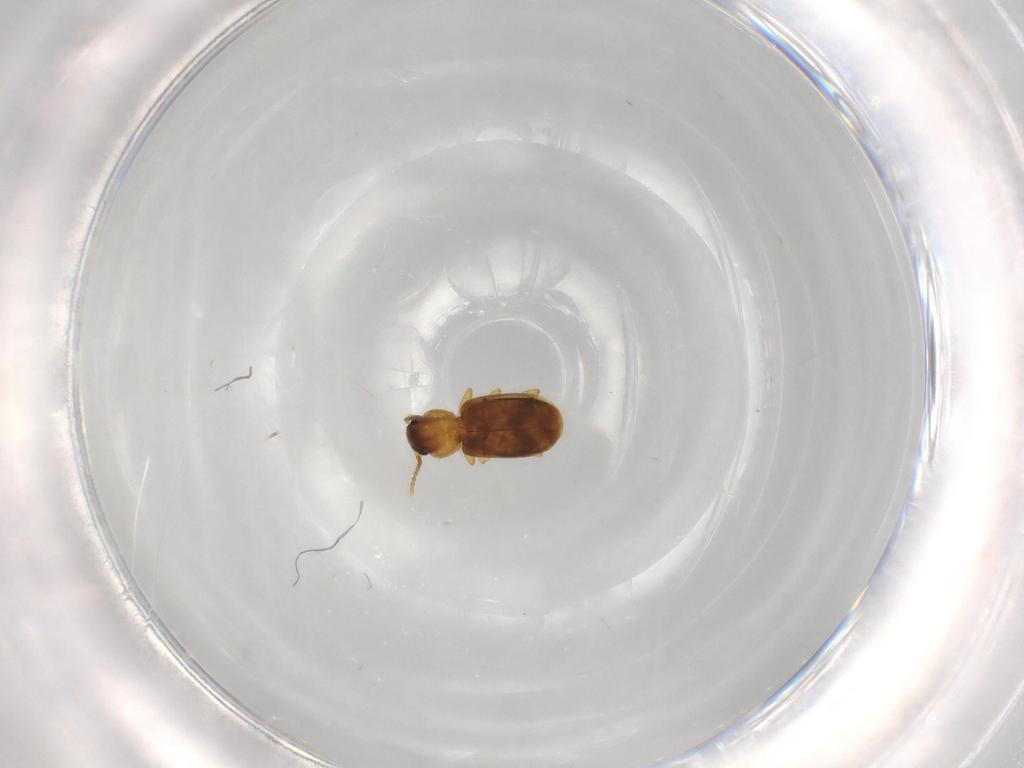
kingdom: Animalia
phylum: Arthropoda
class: Insecta
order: Coleoptera
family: Carabidae
